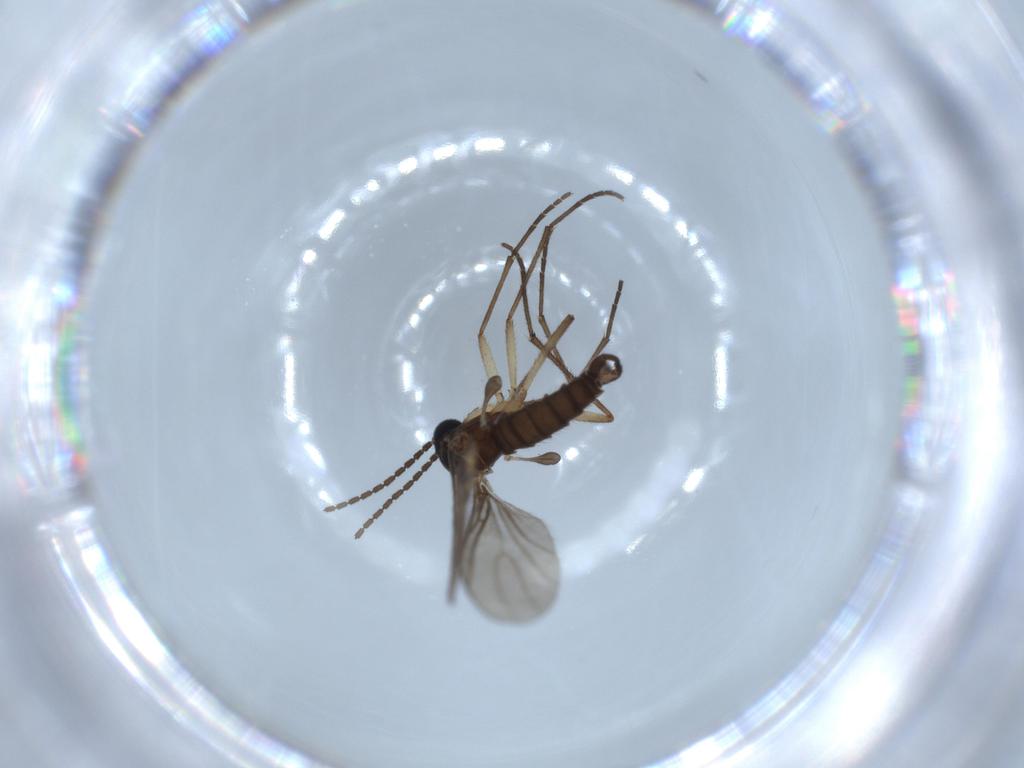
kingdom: Animalia
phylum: Arthropoda
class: Insecta
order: Diptera
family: Sciaridae
